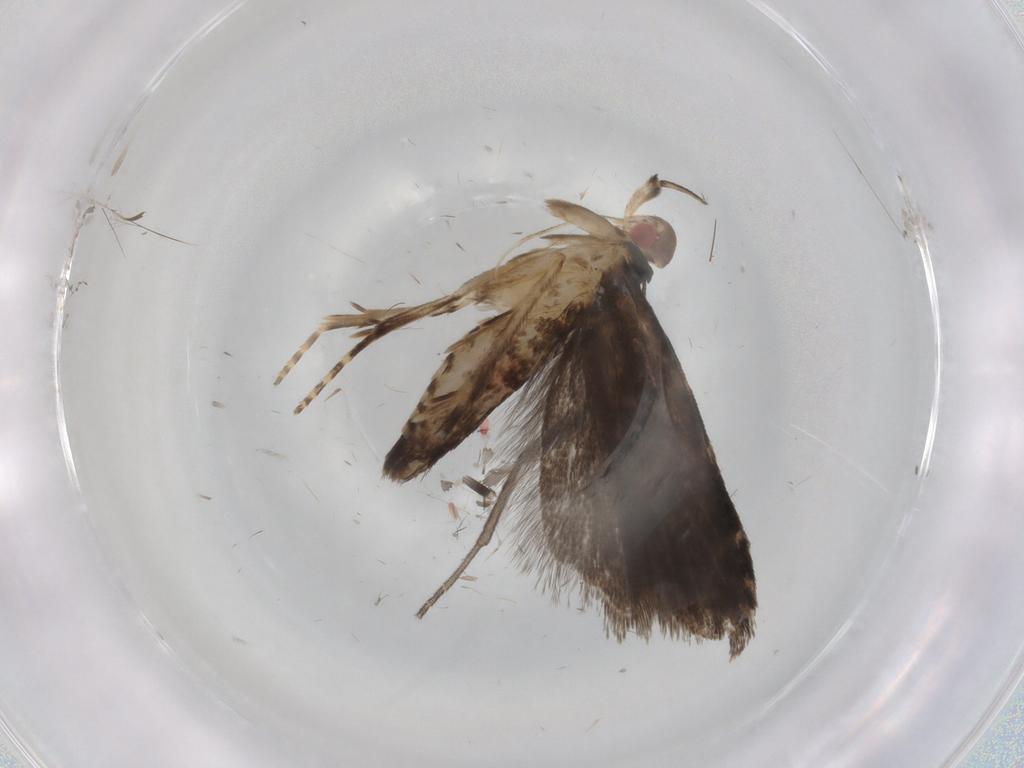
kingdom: Animalia
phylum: Arthropoda
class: Insecta
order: Lepidoptera
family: Gelechiidae
